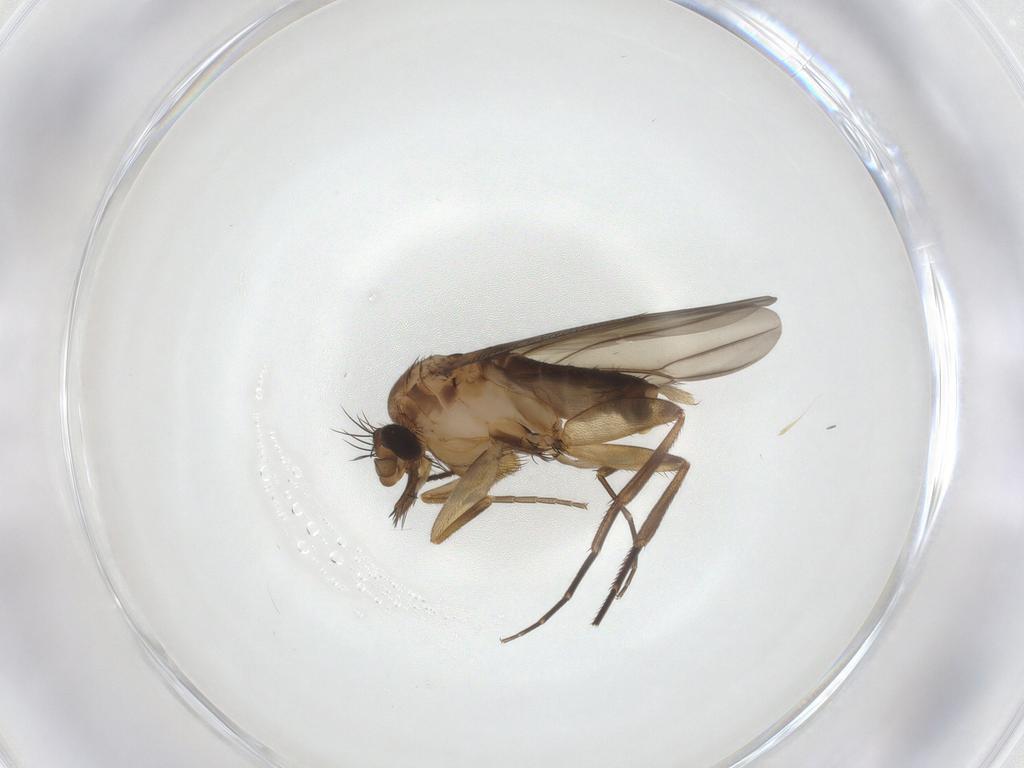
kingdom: Animalia
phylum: Arthropoda
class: Insecta
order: Diptera
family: Phoridae
